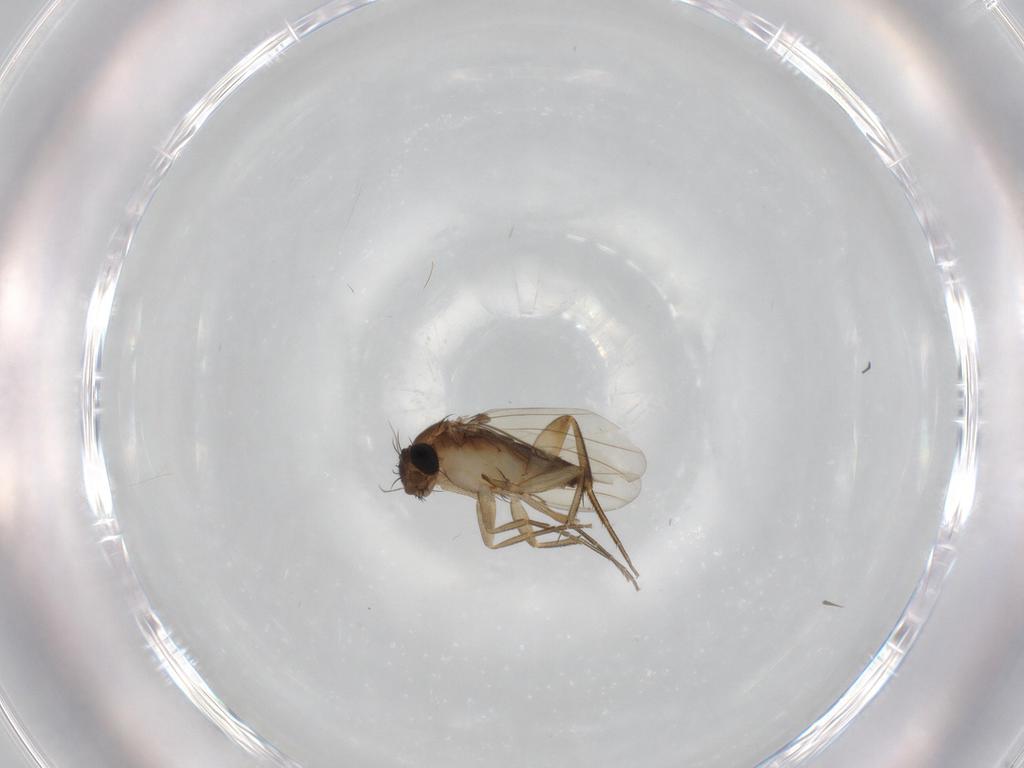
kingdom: Animalia
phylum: Arthropoda
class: Insecta
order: Diptera
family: Phoridae
